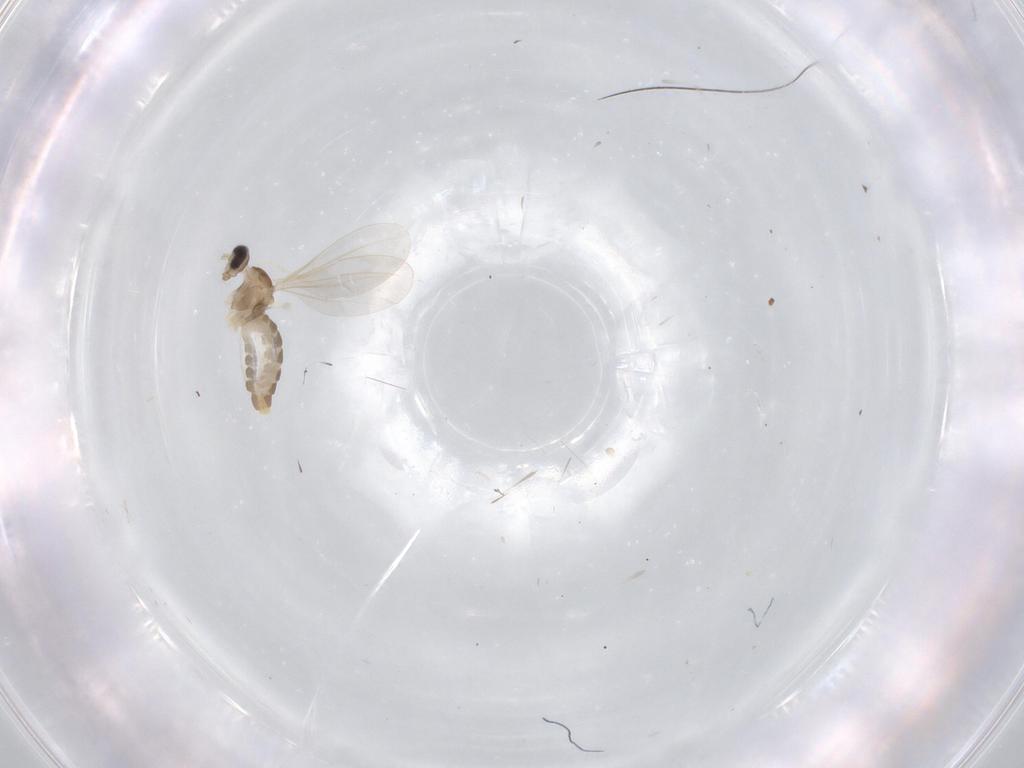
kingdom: Animalia
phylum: Arthropoda
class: Insecta
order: Diptera
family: Cecidomyiidae
